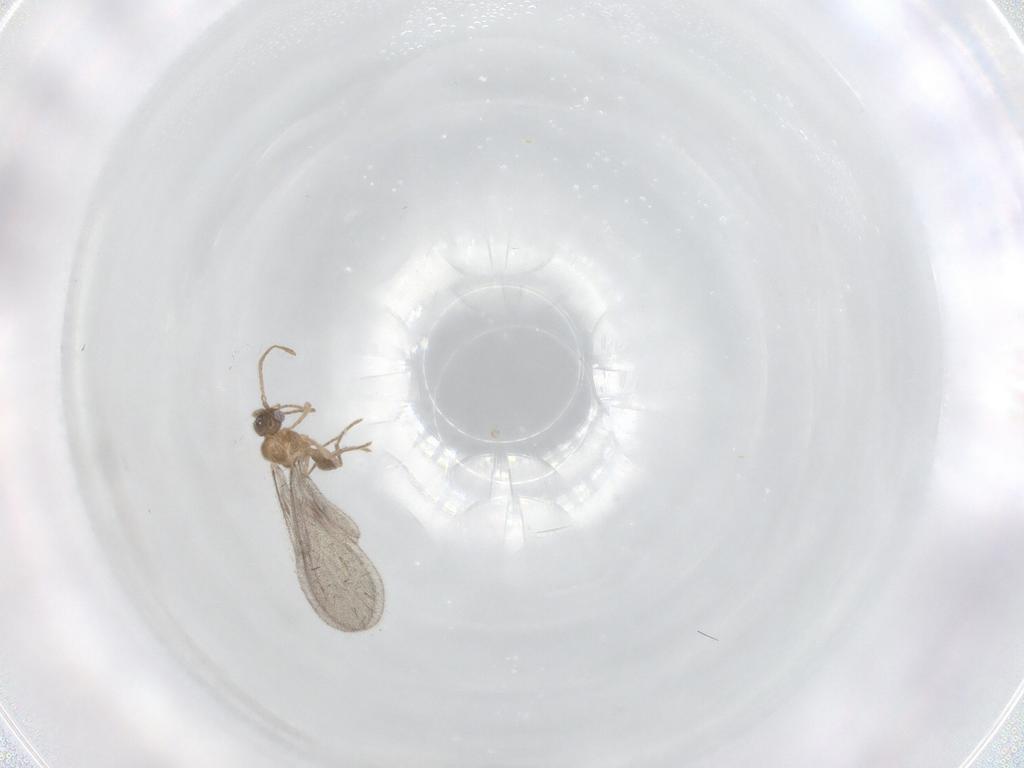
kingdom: Animalia
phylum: Arthropoda
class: Insecta
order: Hymenoptera
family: Formicidae
